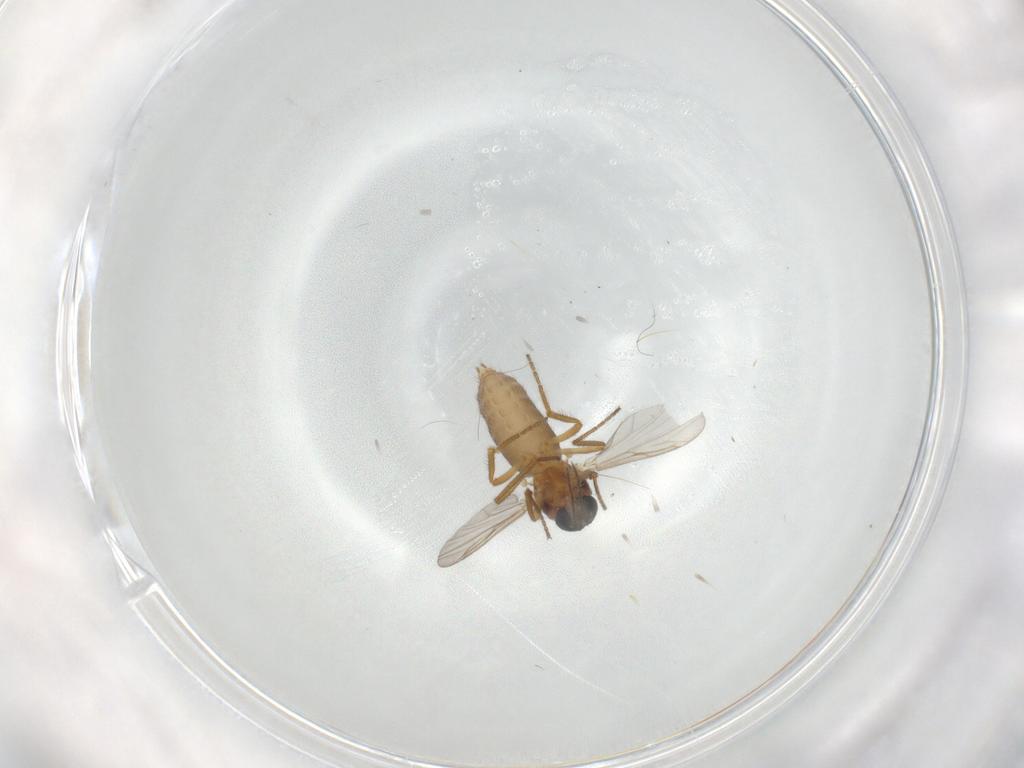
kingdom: Animalia
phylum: Arthropoda
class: Insecta
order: Diptera
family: Ceratopogonidae
